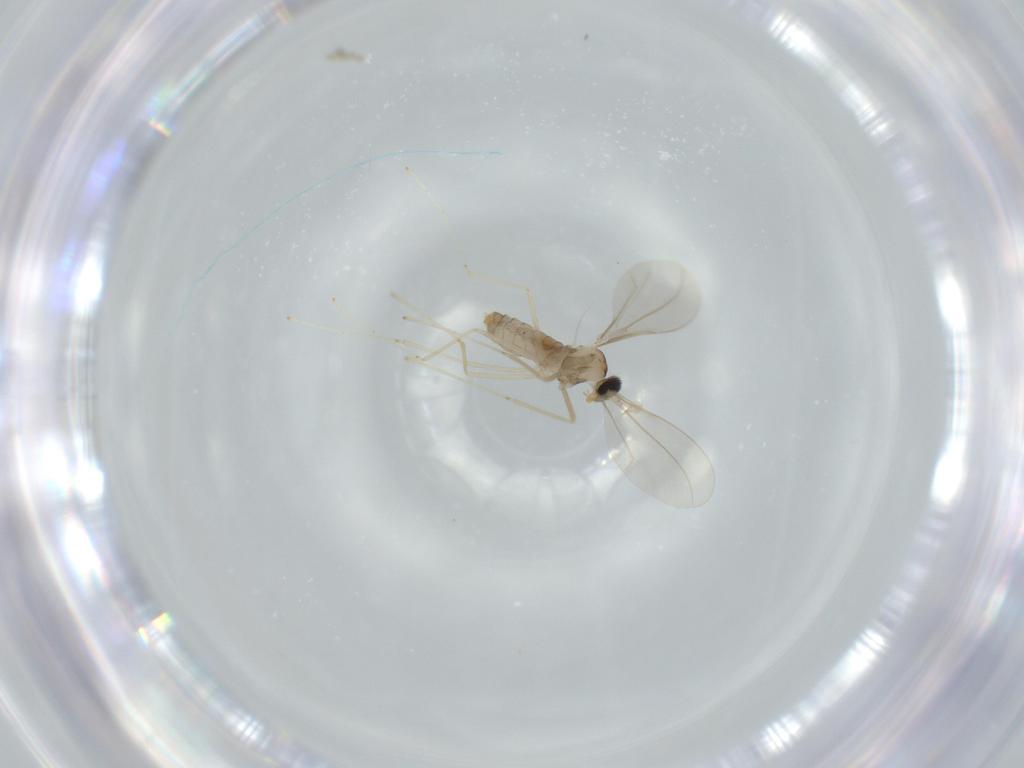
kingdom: Animalia
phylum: Arthropoda
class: Insecta
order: Diptera
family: Cecidomyiidae
